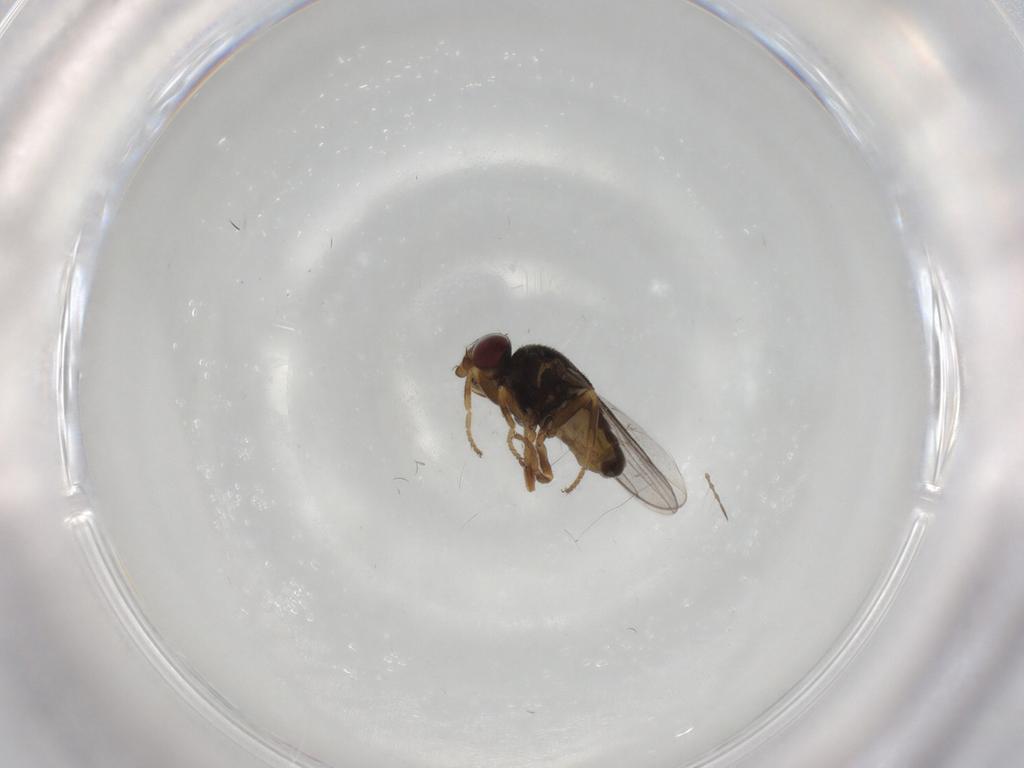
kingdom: Animalia
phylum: Arthropoda
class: Insecta
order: Diptera
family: Chloropidae
